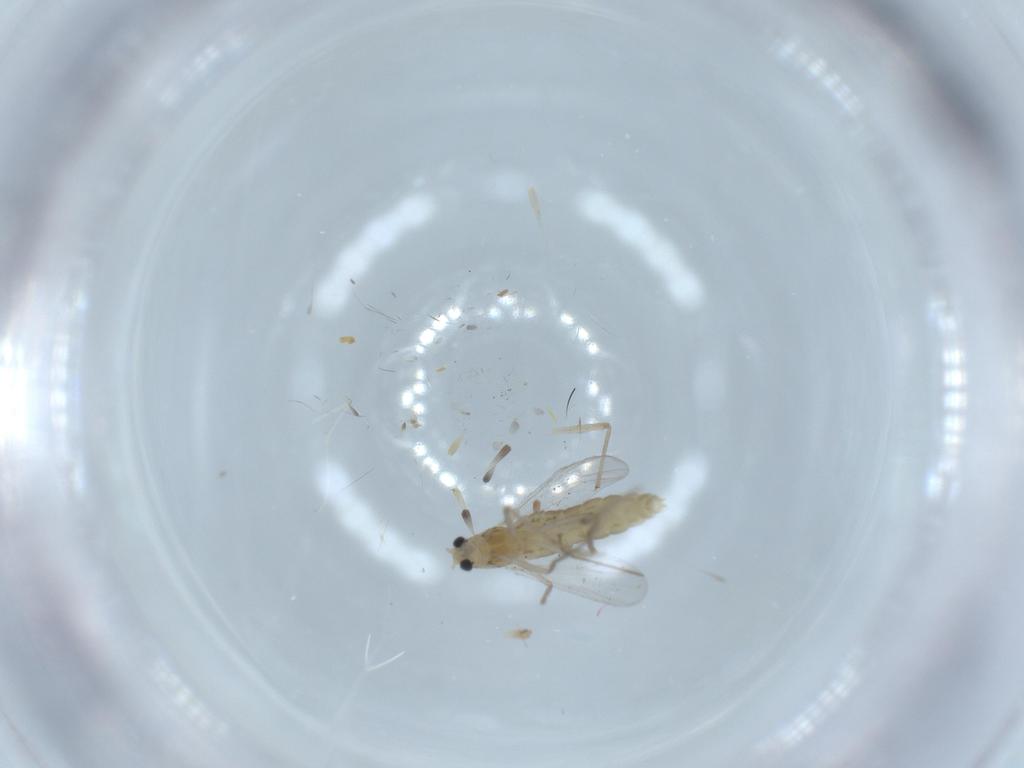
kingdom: Animalia
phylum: Arthropoda
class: Insecta
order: Diptera
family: Chironomidae
